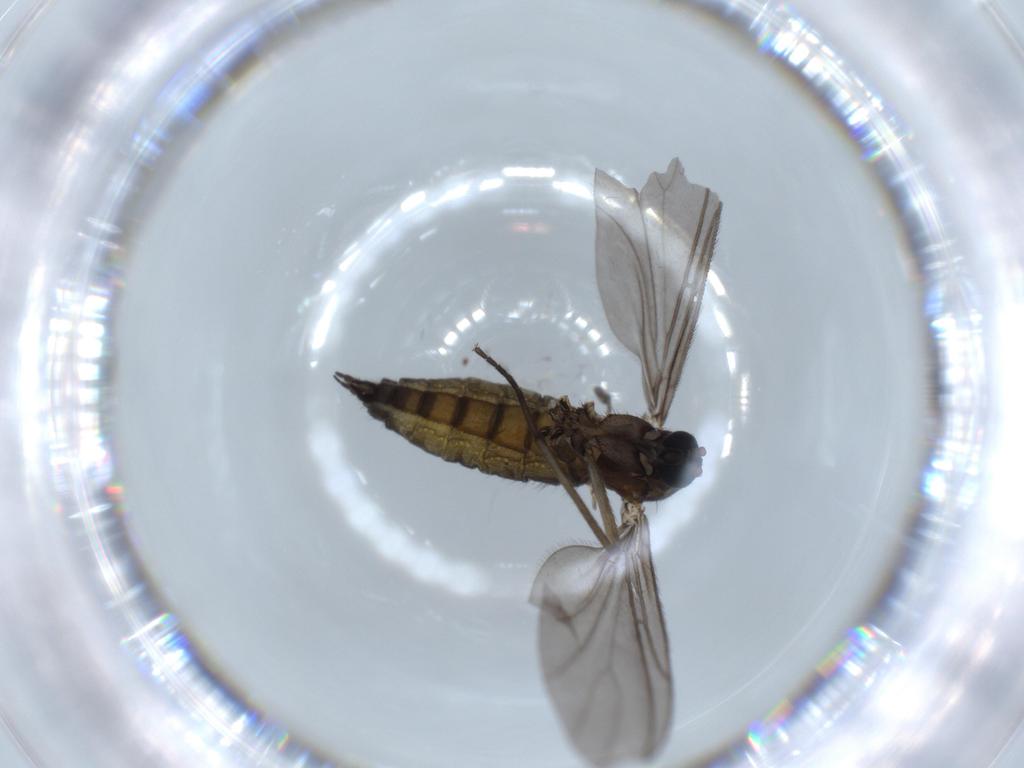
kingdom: Animalia
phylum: Arthropoda
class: Insecta
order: Diptera
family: Sciaridae
